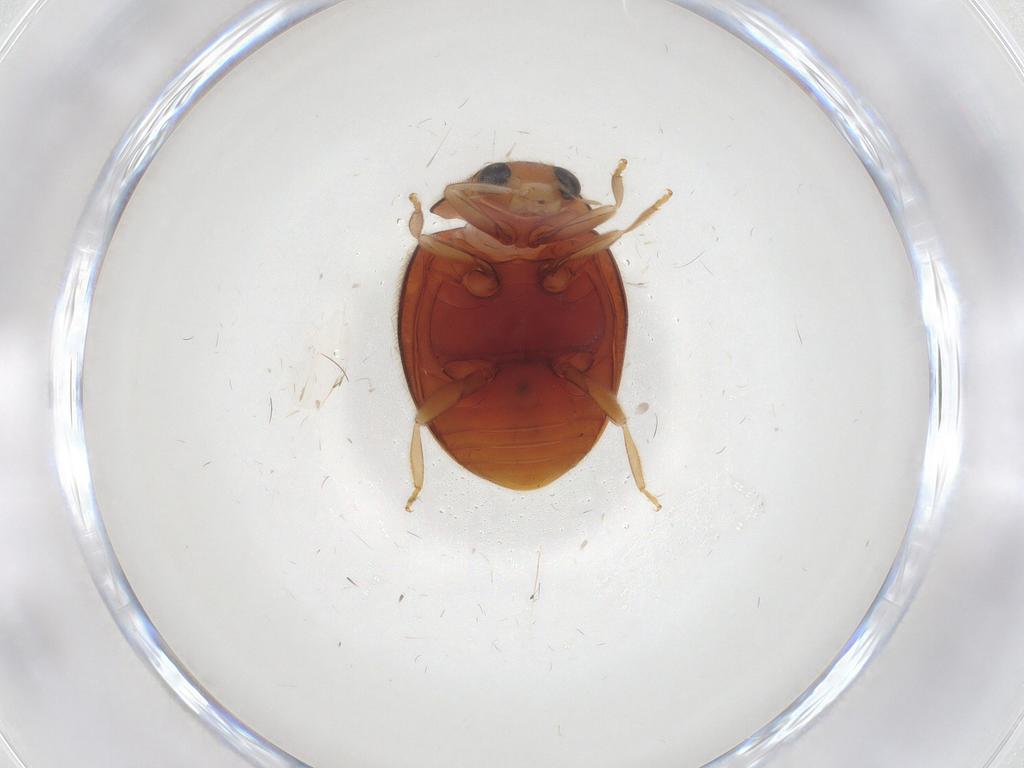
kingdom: Animalia
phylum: Arthropoda
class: Insecta
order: Coleoptera
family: Coccinellidae
